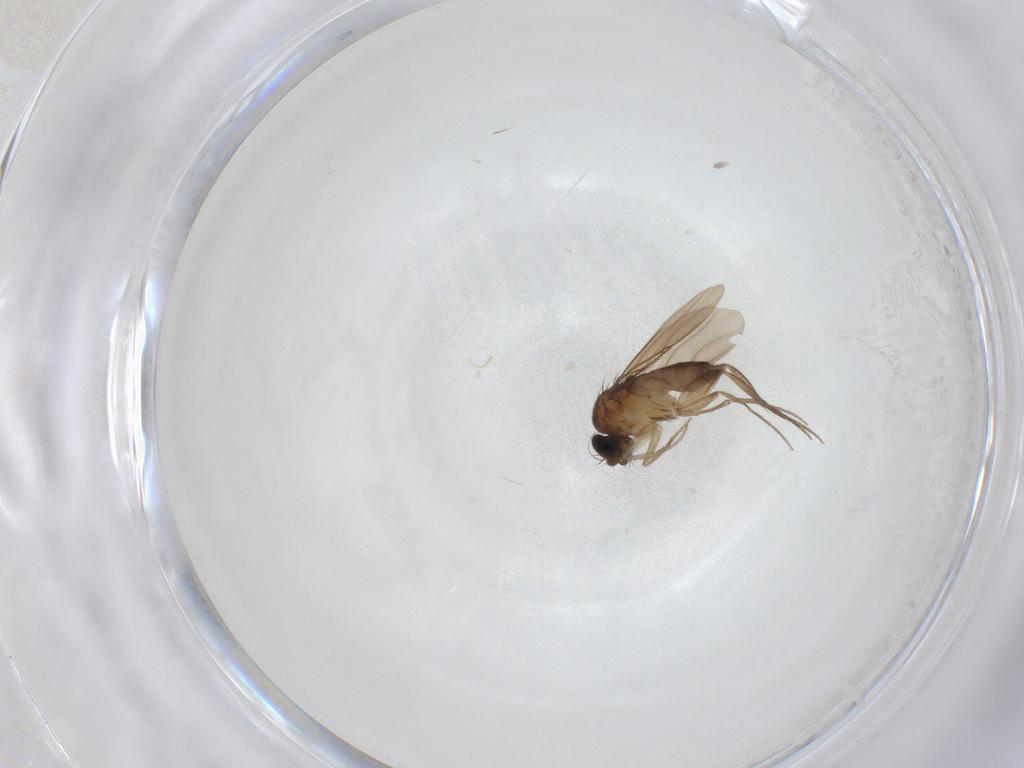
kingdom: Animalia
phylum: Arthropoda
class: Insecta
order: Diptera
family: Phoridae
